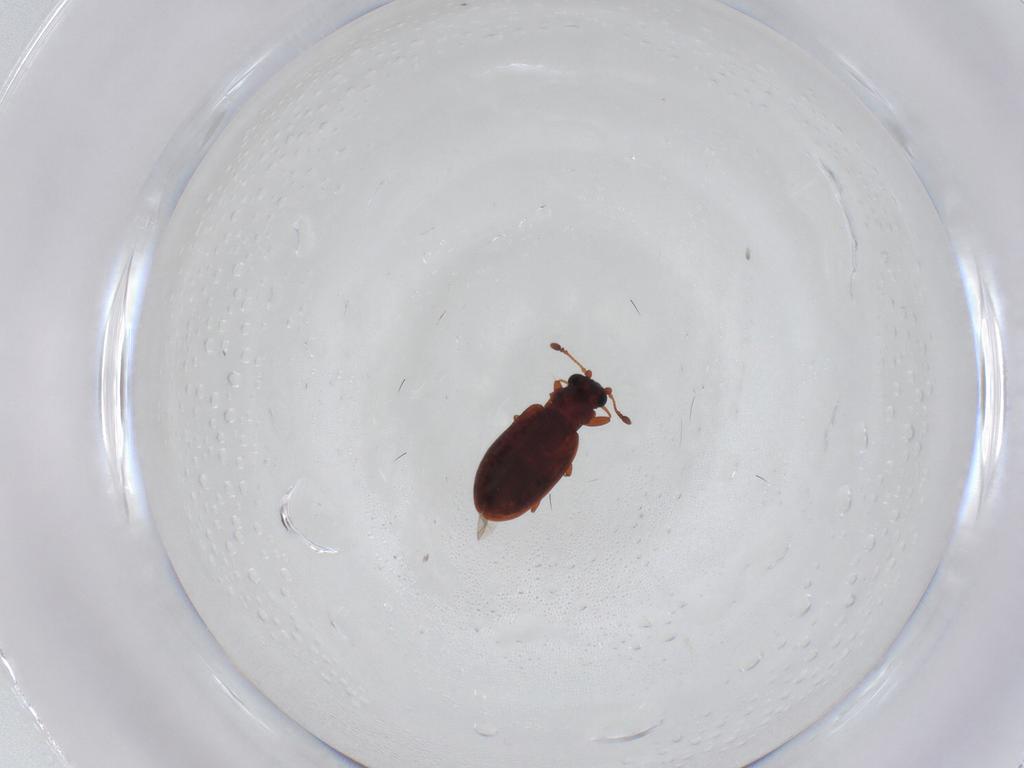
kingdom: Animalia
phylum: Arthropoda
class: Insecta
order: Coleoptera
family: Latridiidae
